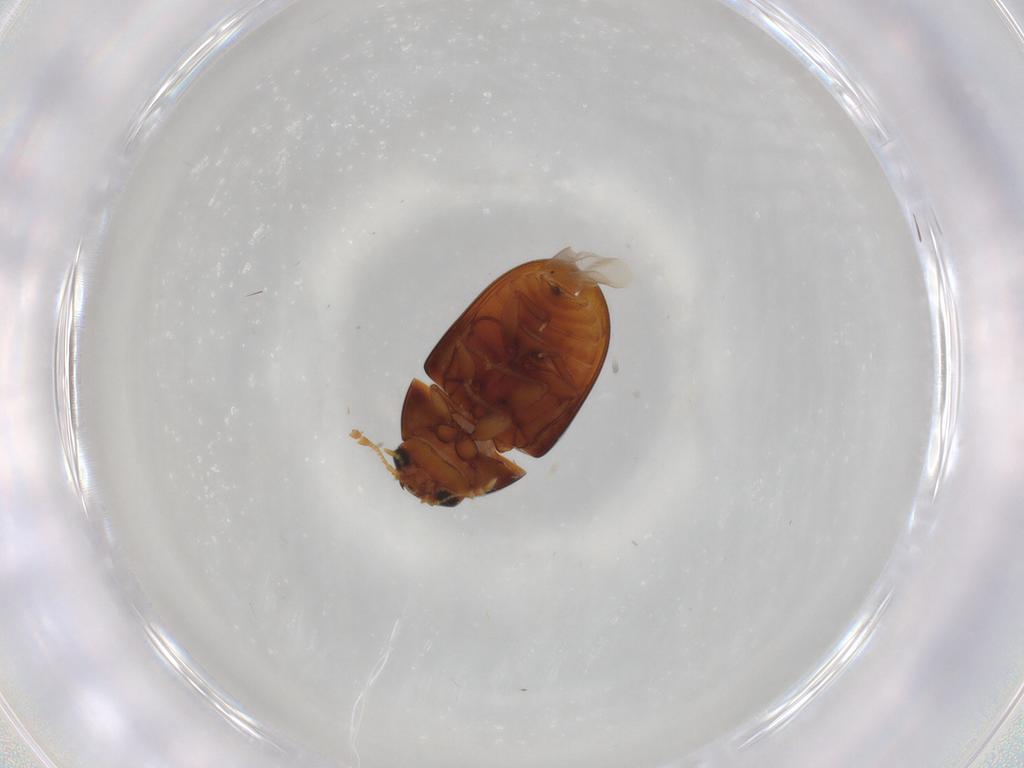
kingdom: Animalia
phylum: Arthropoda
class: Insecta
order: Coleoptera
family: Phalacridae
